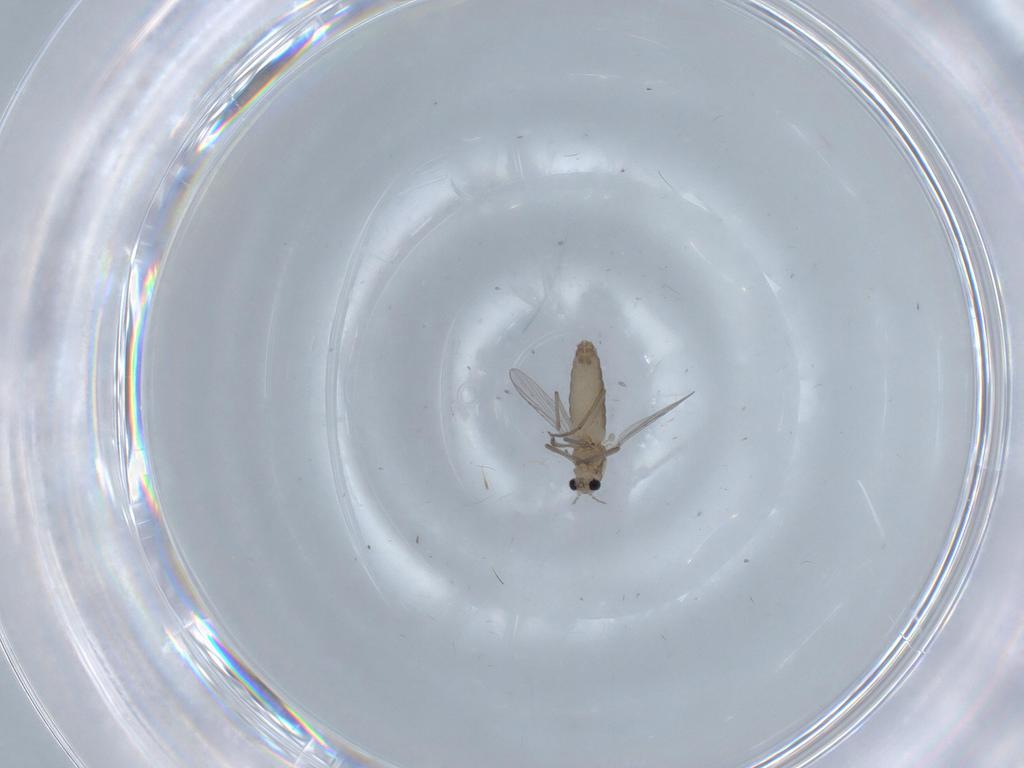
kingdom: Animalia
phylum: Arthropoda
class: Insecta
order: Diptera
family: Chironomidae
